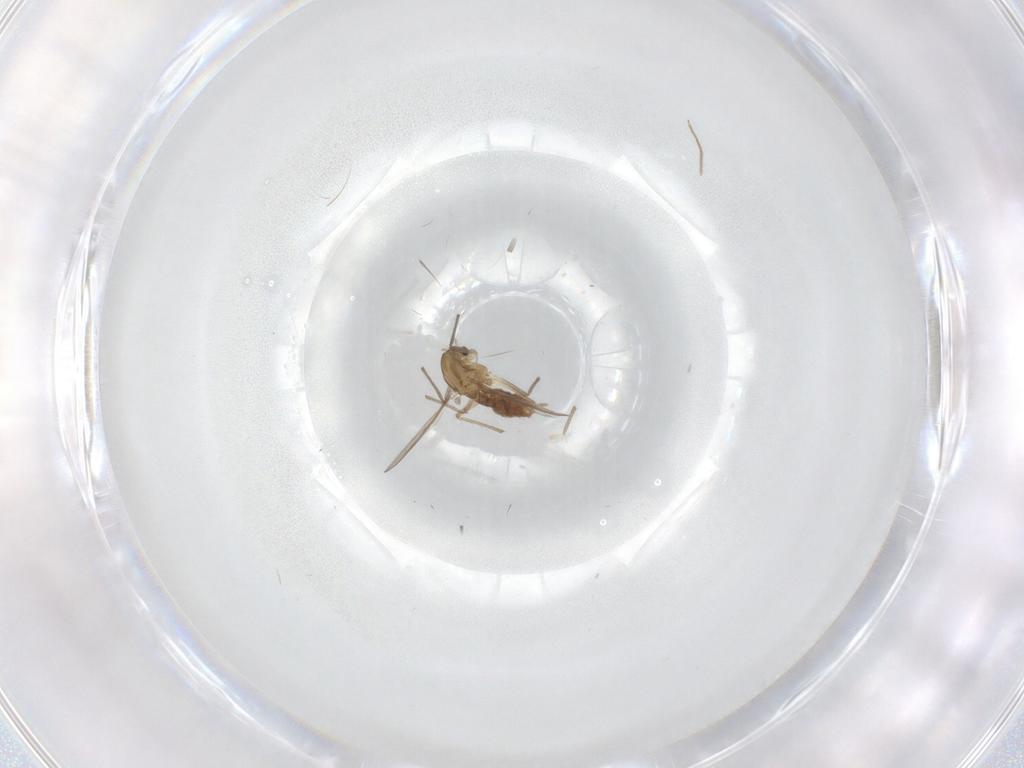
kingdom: Animalia
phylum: Arthropoda
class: Insecta
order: Diptera
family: Chironomidae
